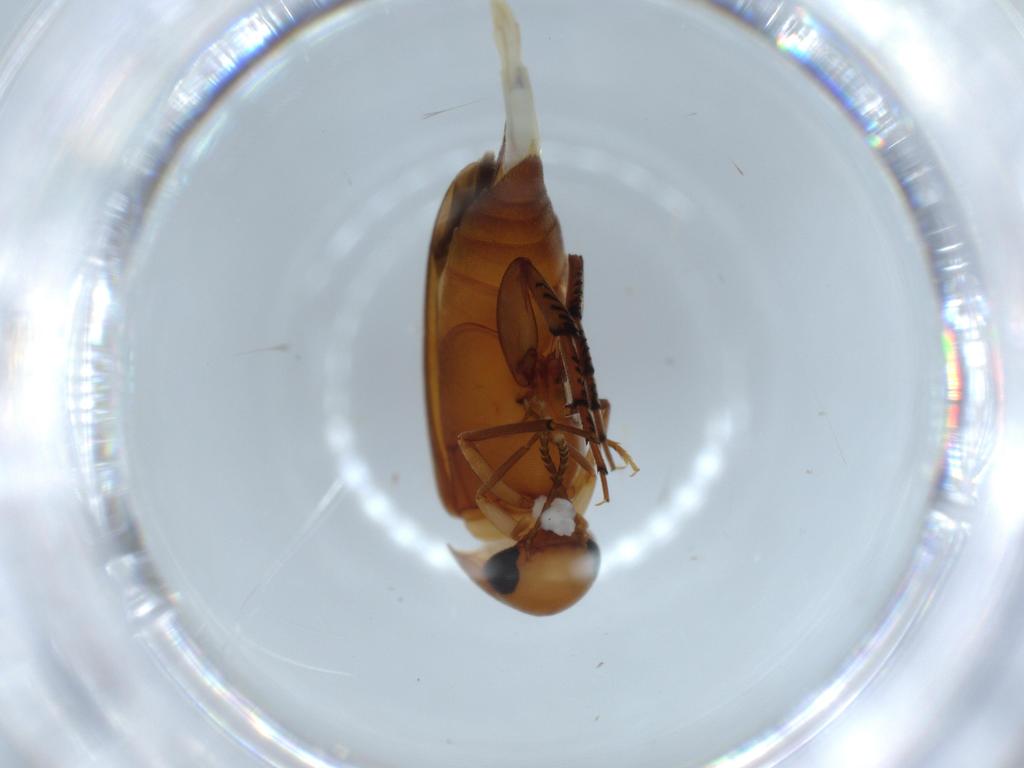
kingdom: Animalia
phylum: Arthropoda
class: Insecta
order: Coleoptera
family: Mordellidae
